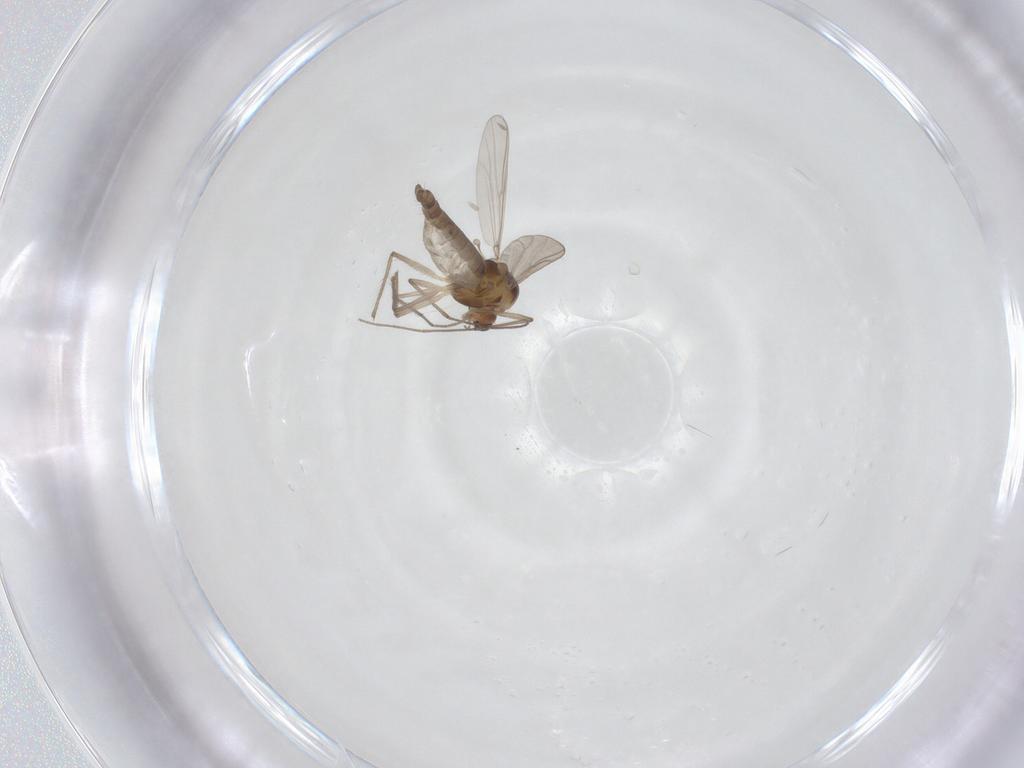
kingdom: Animalia
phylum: Arthropoda
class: Insecta
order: Diptera
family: Chironomidae
